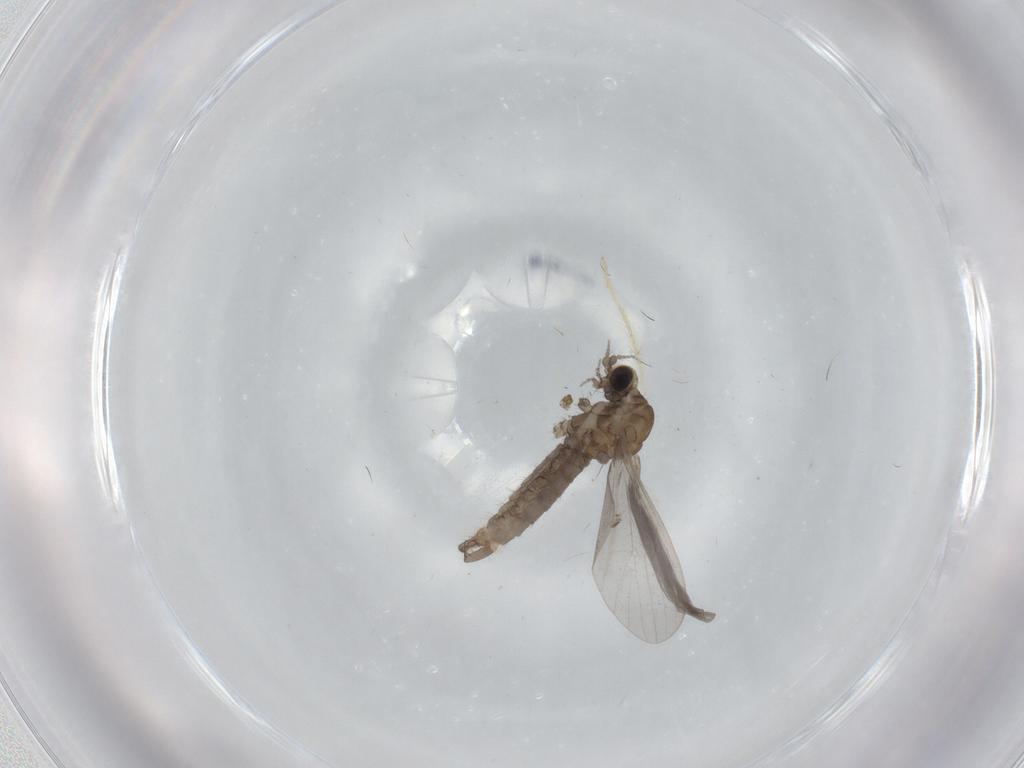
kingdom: Animalia
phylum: Arthropoda
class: Insecta
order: Diptera
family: Limoniidae
